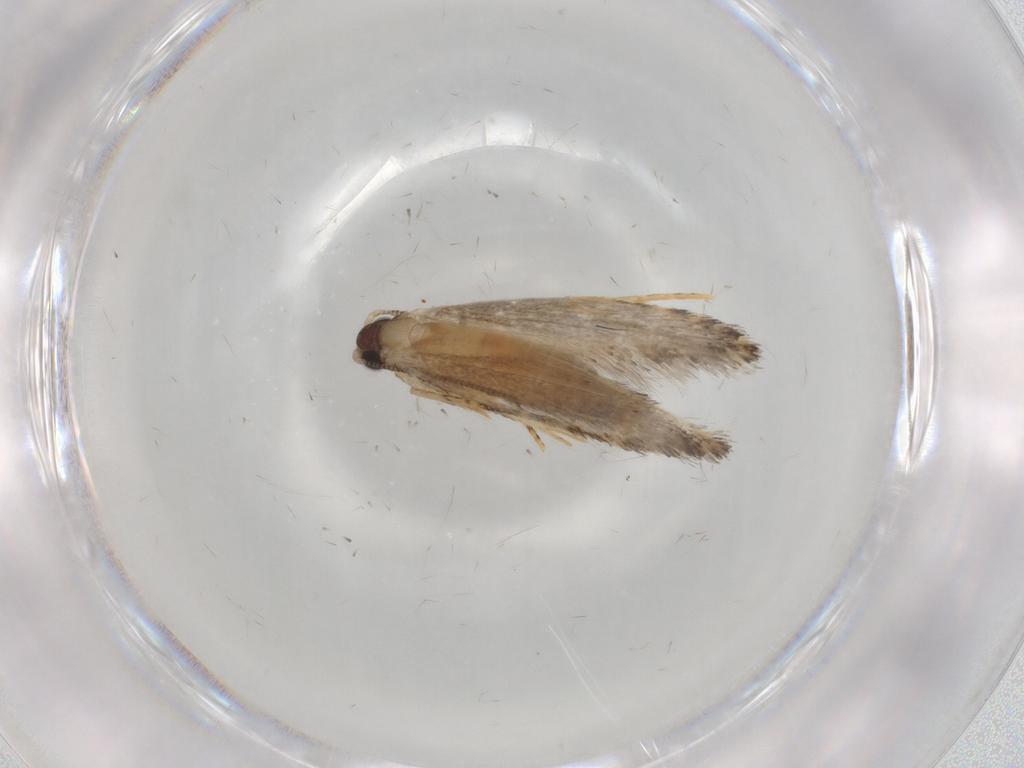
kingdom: Animalia
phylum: Arthropoda
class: Insecta
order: Lepidoptera
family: Autostichidae
